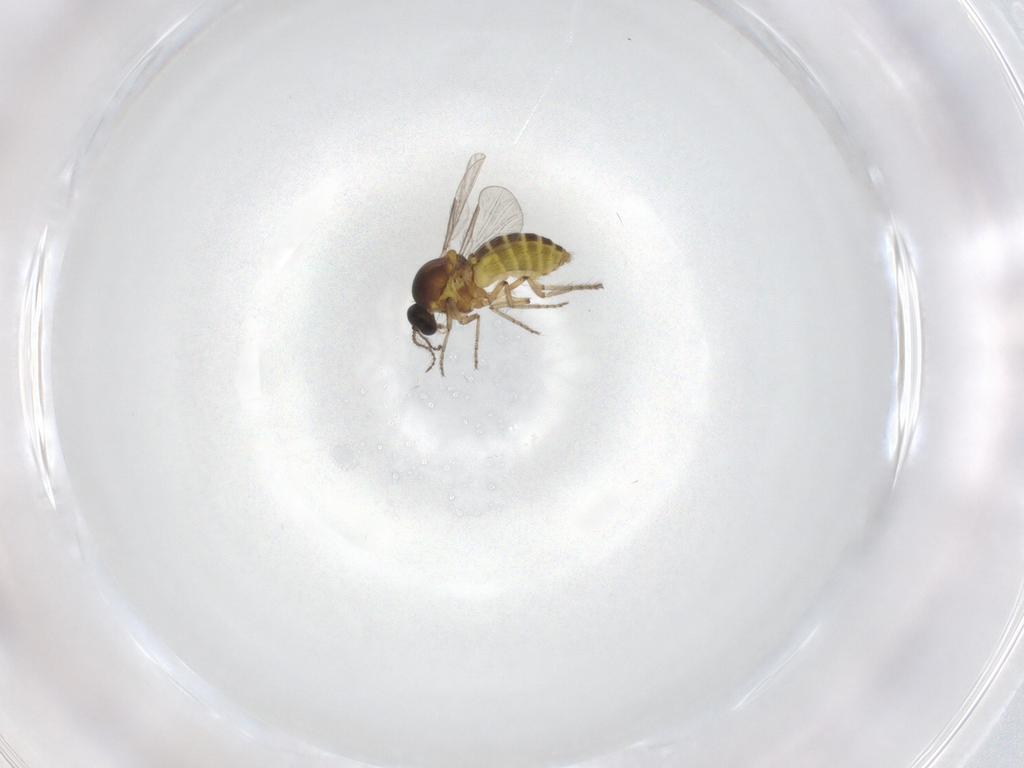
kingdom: Animalia
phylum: Arthropoda
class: Insecta
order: Diptera
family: Ceratopogonidae
